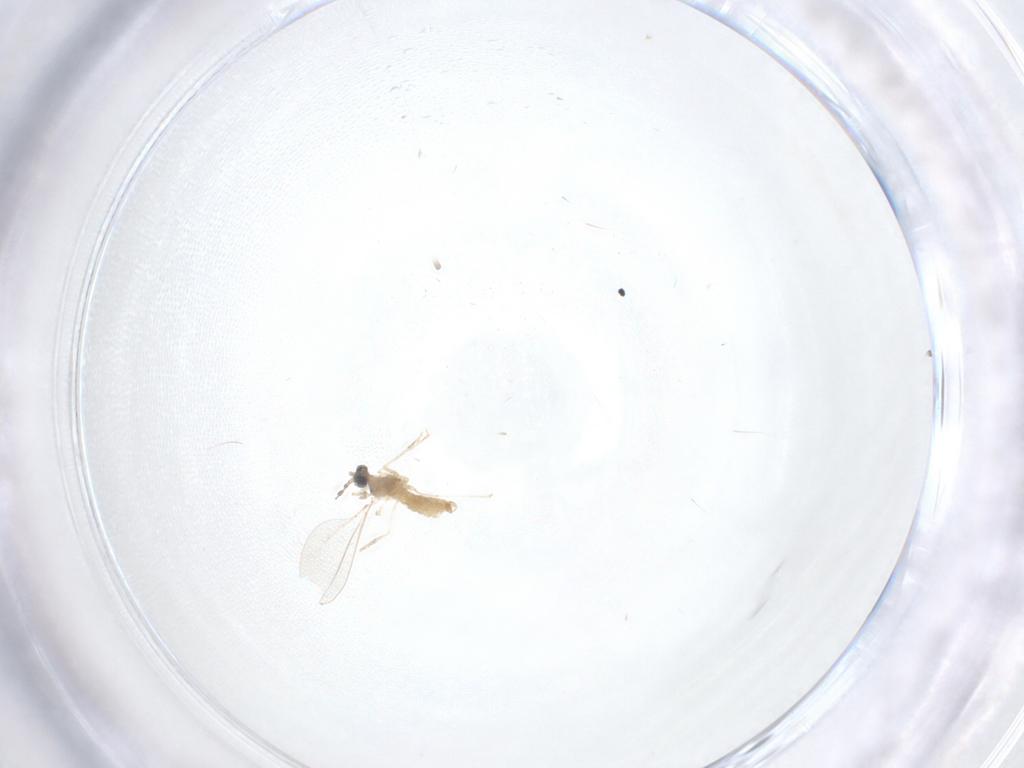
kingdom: Animalia
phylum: Arthropoda
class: Insecta
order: Diptera
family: Cecidomyiidae
